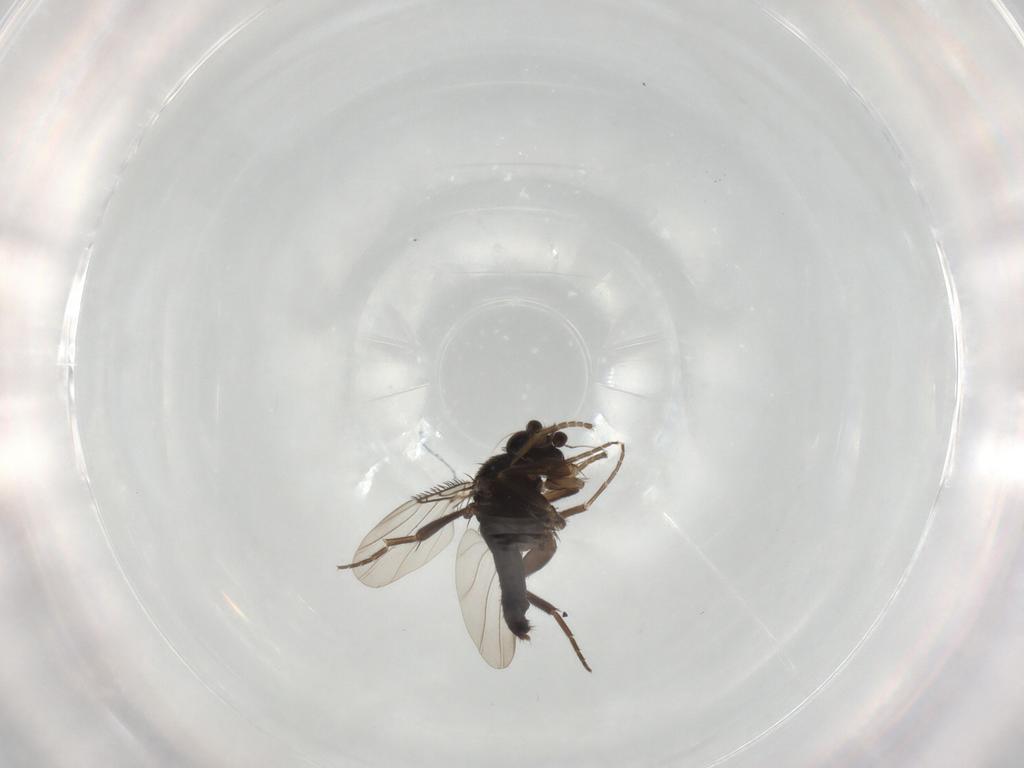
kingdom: Animalia
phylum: Arthropoda
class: Insecta
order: Diptera
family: Phoridae
